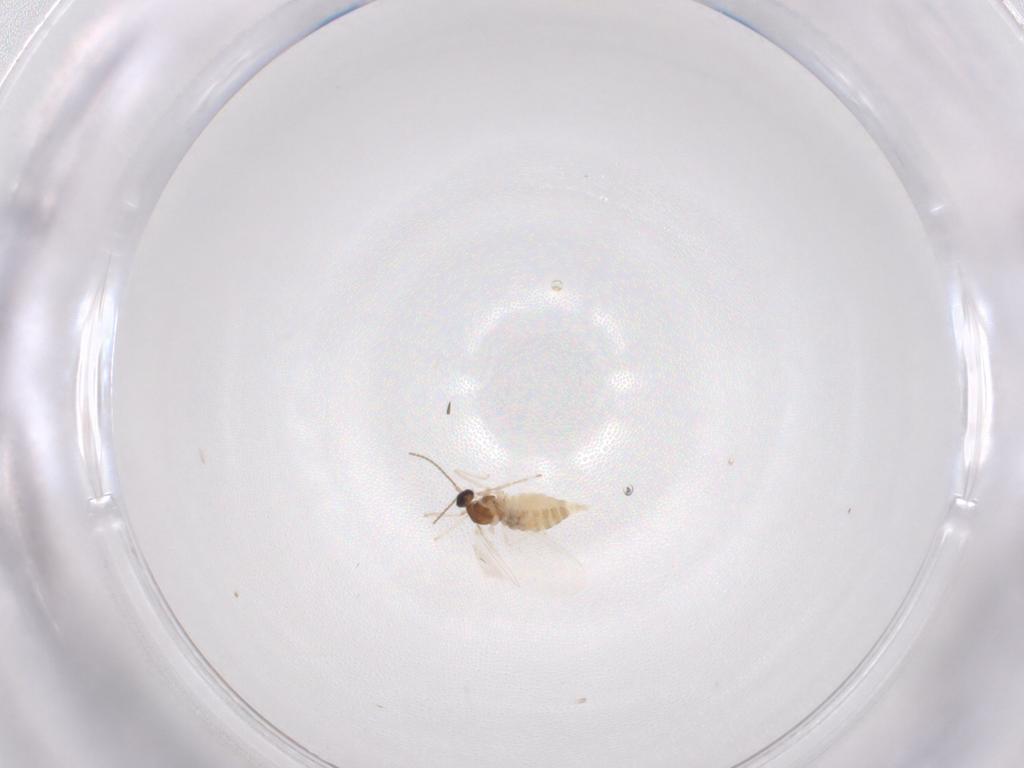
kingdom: Animalia
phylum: Arthropoda
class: Insecta
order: Diptera
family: Cecidomyiidae
